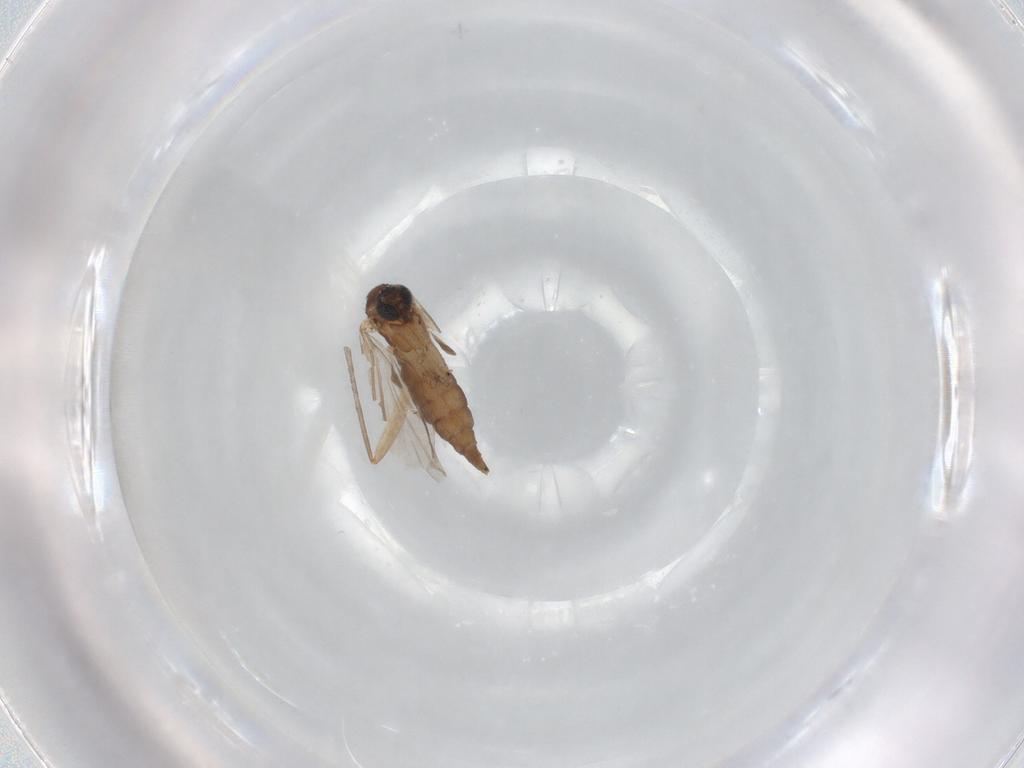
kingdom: Animalia
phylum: Arthropoda
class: Insecta
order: Diptera
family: Sciaridae
